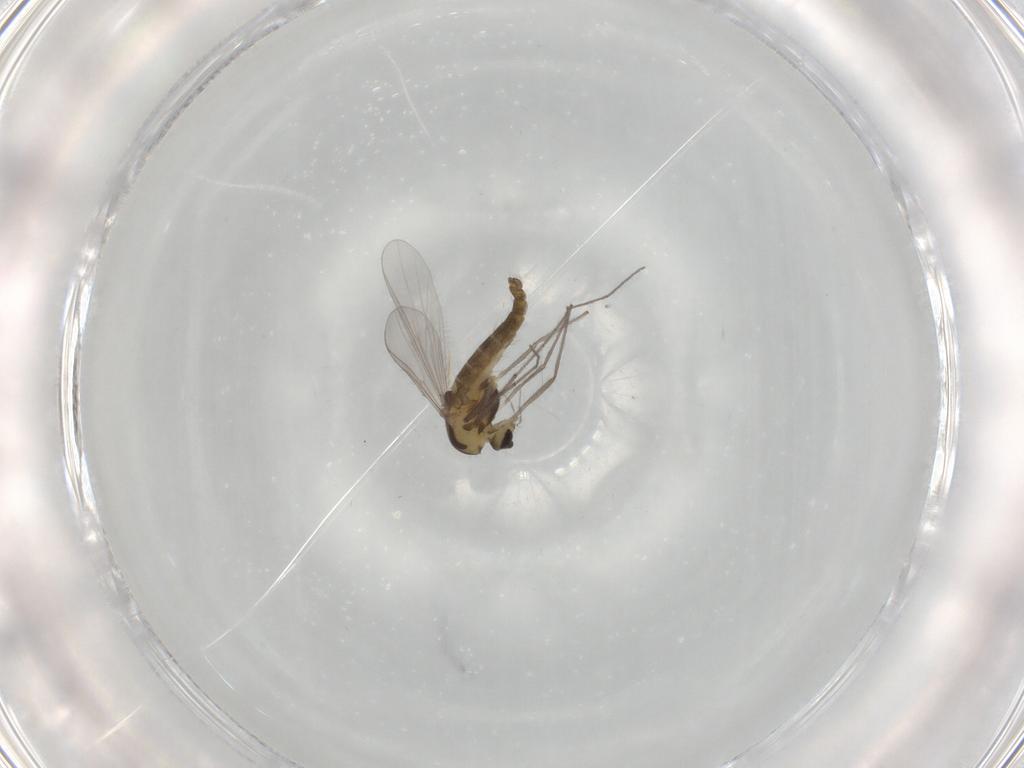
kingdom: Animalia
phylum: Arthropoda
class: Insecta
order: Diptera
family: Chironomidae
